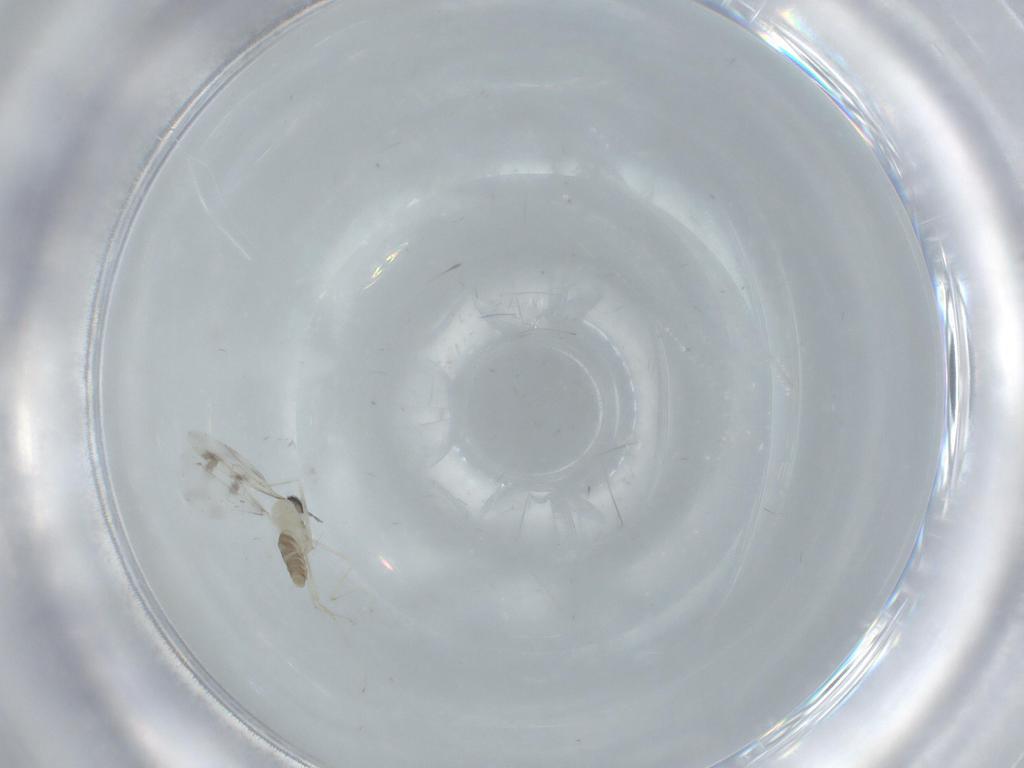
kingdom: Animalia
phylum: Arthropoda
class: Insecta
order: Diptera
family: Cecidomyiidae
